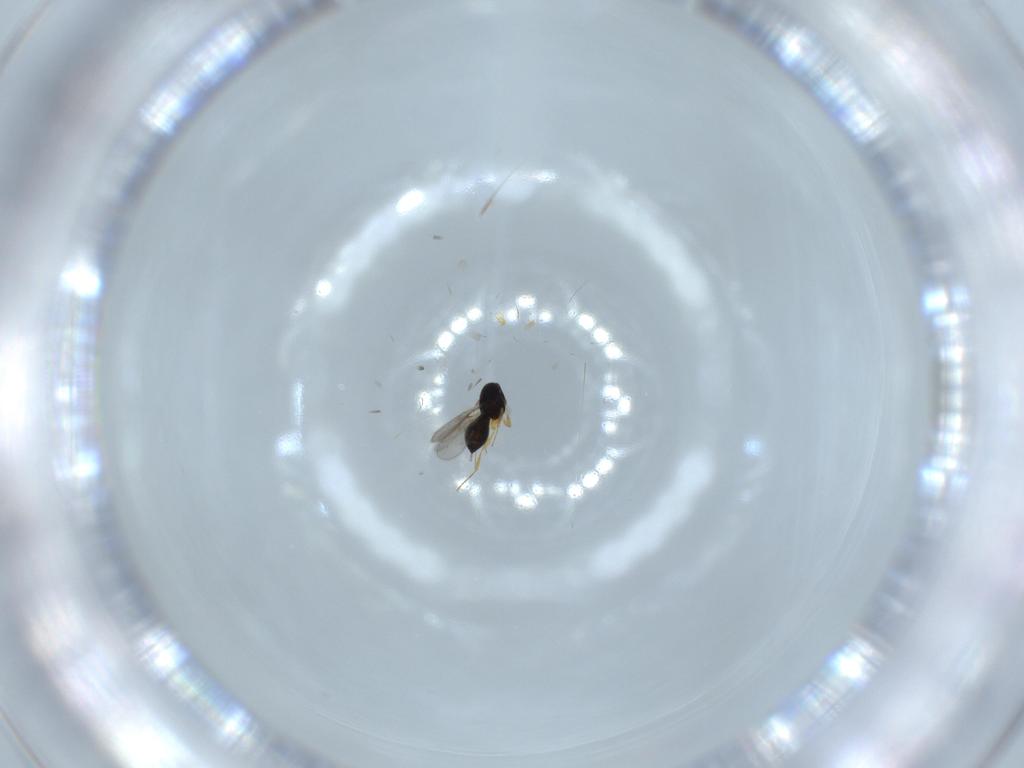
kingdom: Animalia
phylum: Arthropoda
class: Insecta
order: Hymenoptera
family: Scelionidae
